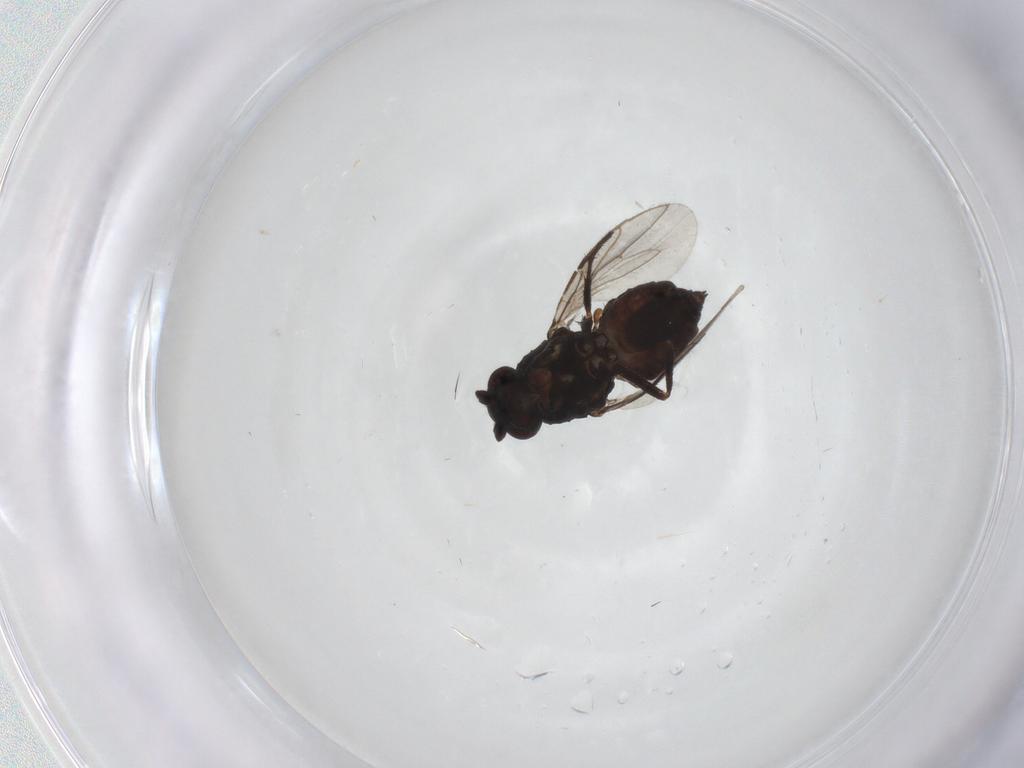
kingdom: Animalia
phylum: Arthropoda
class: Insecta
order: Diptera
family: Sphaeroceridae
